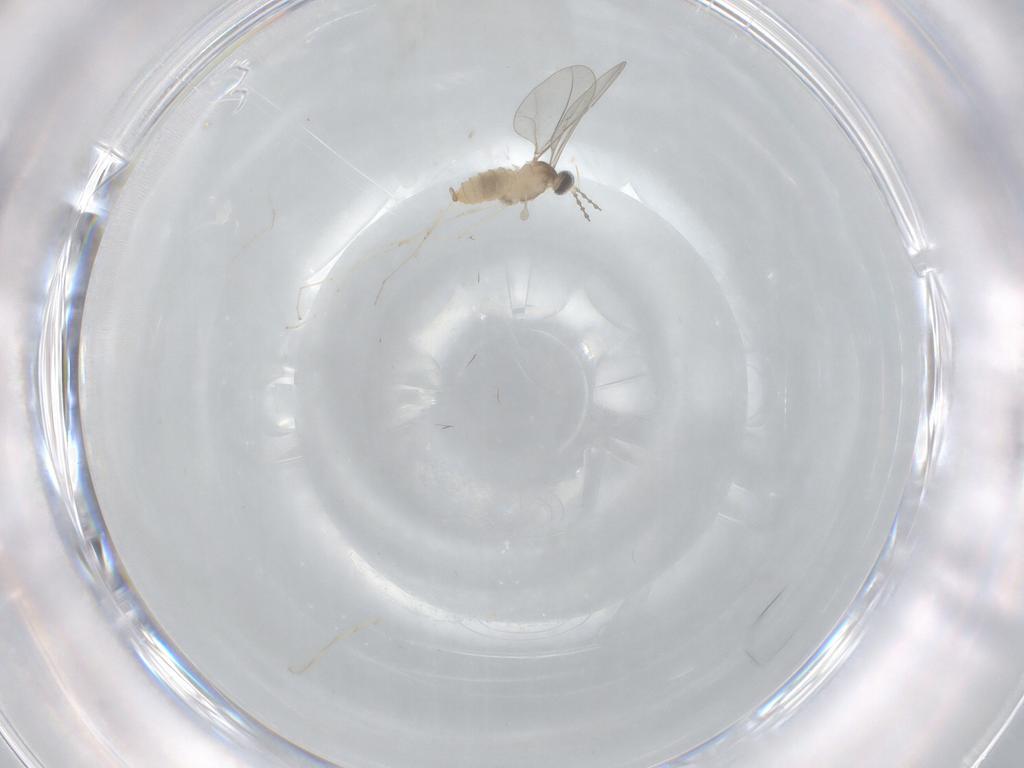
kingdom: Animalia
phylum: Arthropoda
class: Insecta
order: Diptera
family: Cecidomyiidae
